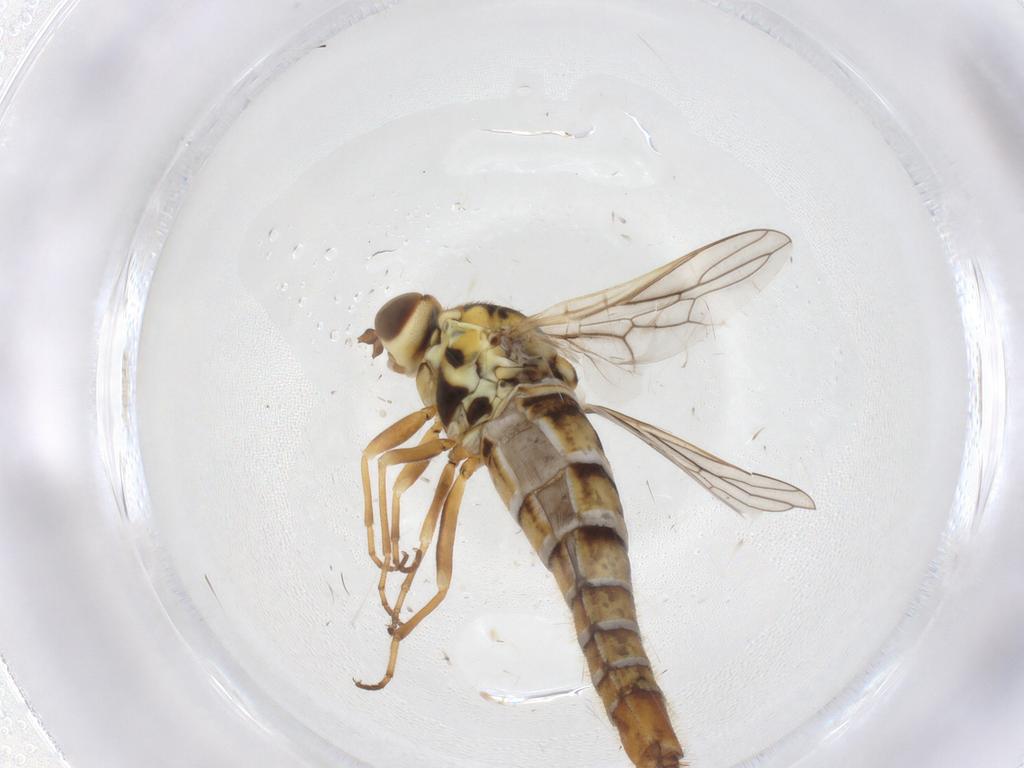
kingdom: Animalia
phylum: Arthropoda
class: Insecta
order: Diptera
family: Scenopinidae
